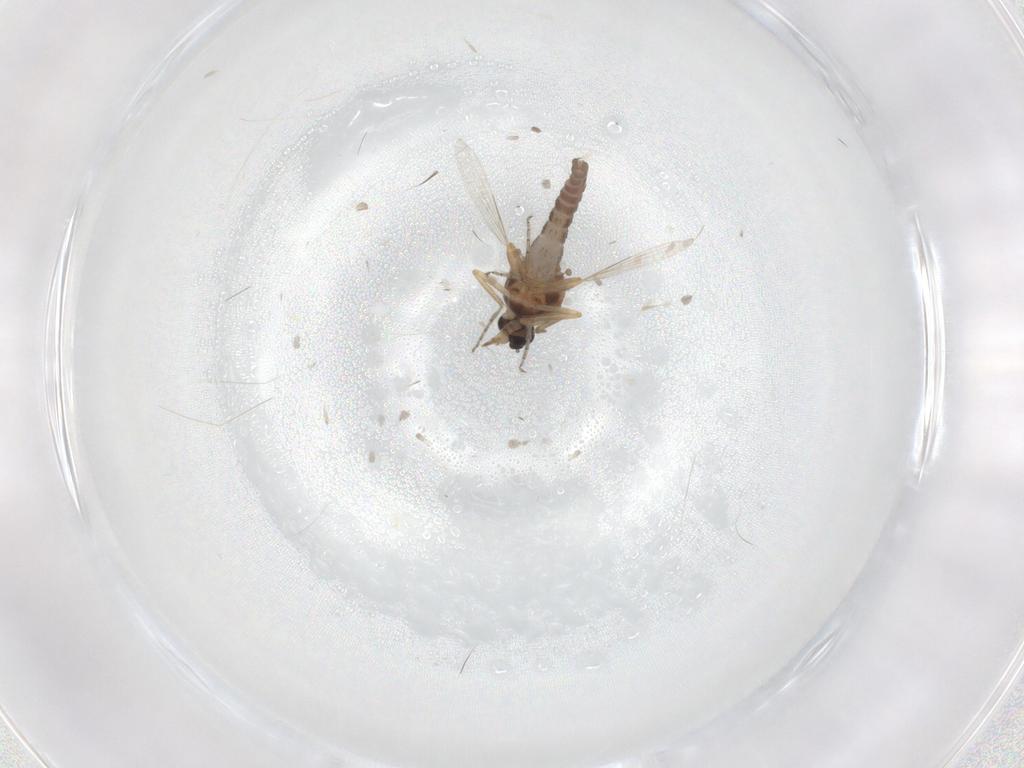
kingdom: Animalia
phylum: Arthropoda
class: Insecta
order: Diptera
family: Ceratopogonidae
